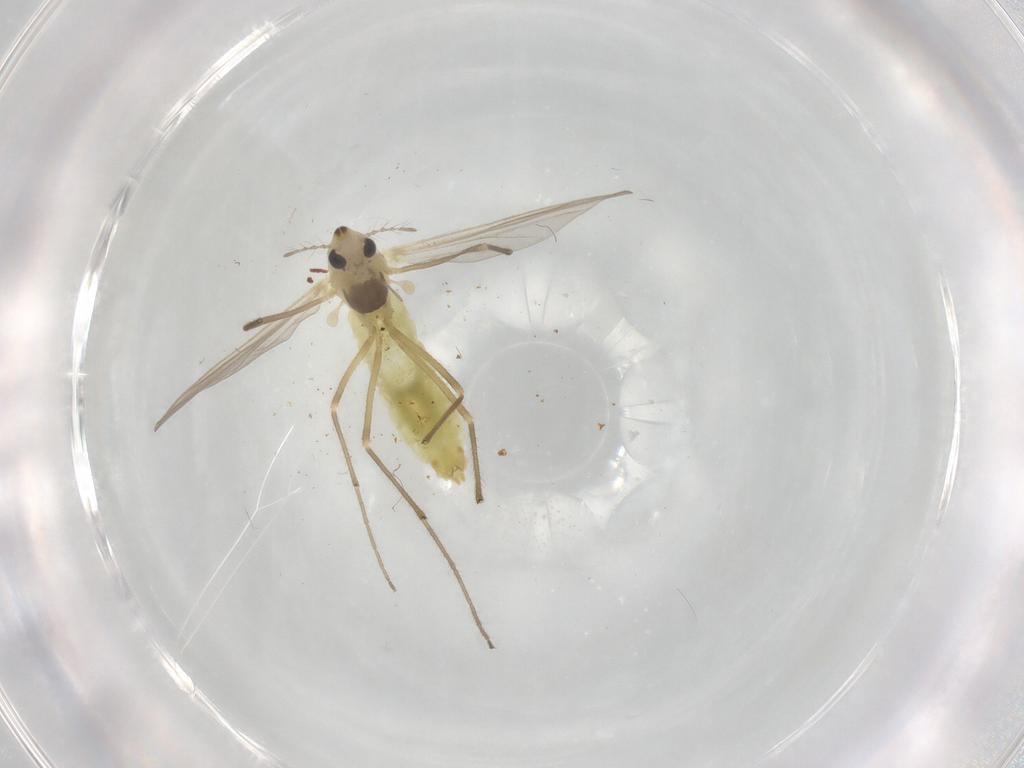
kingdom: Animalia
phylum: Arthropoda
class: Insecta
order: Diptera
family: Chironomidae
